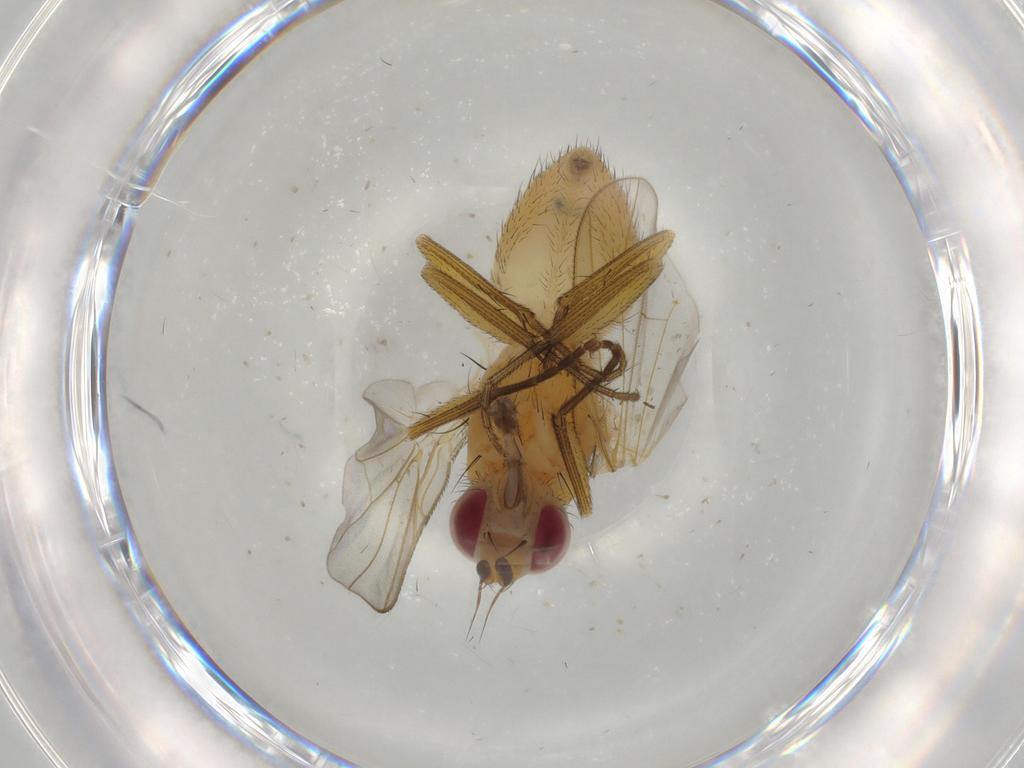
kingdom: Animalia
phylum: Arthropoda
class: Insecta
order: Diptera
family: Muscidae
